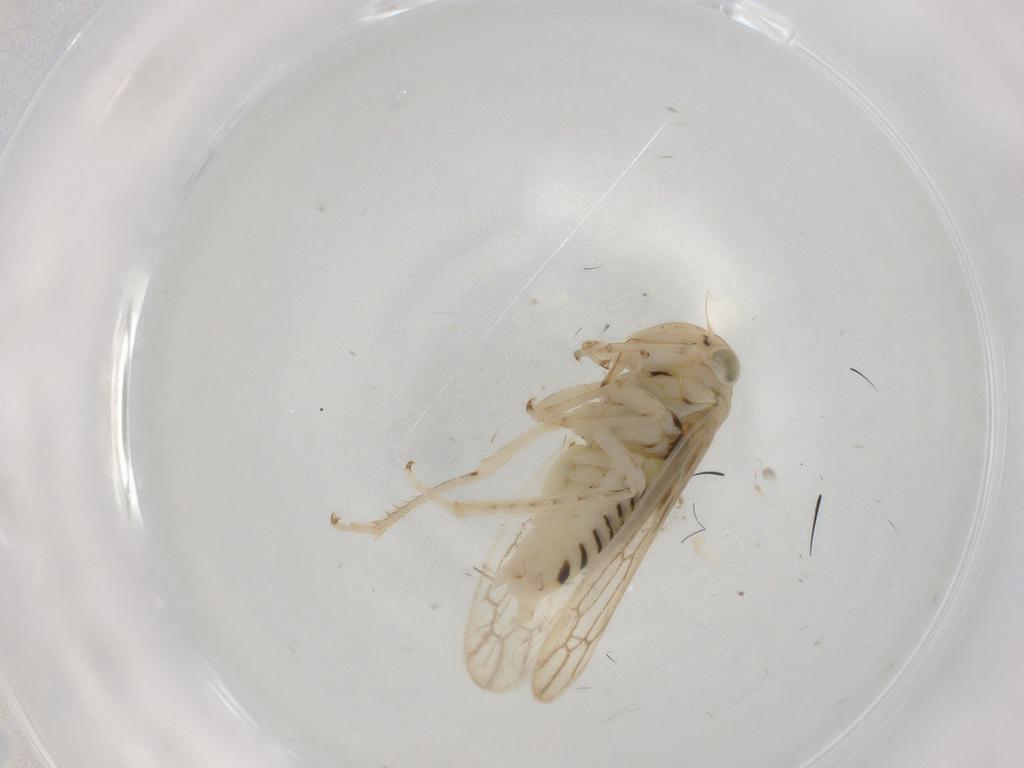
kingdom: Animalia
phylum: Arthropoda
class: Insecta
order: Hemiptera
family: Cicadellidae
